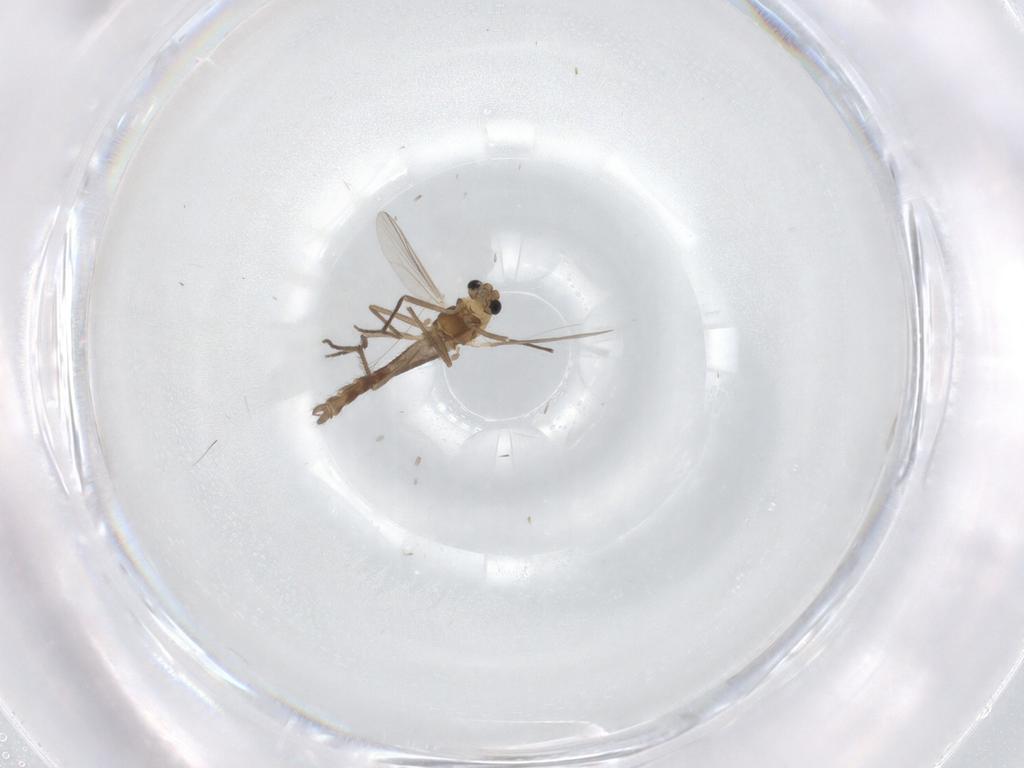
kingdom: Animalia
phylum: Arthropoda
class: Insecta
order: Diptera
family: Chironomidae
